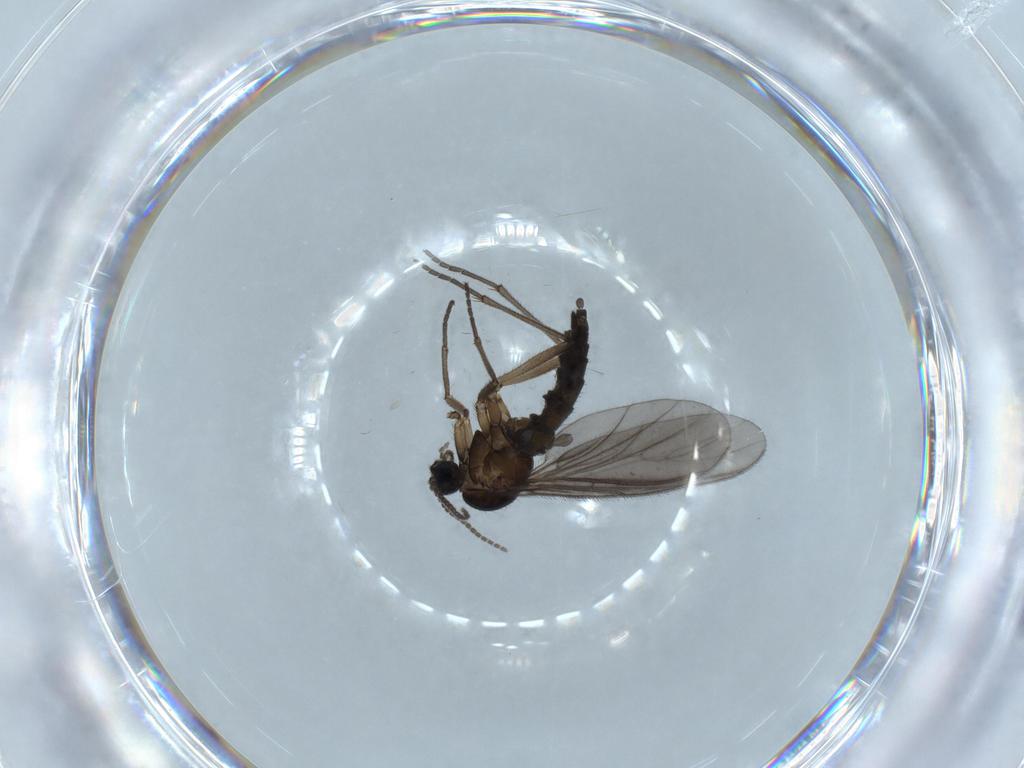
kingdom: Animalia
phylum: Arthropoda
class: Insecta
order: Diptera
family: Sciaridae
